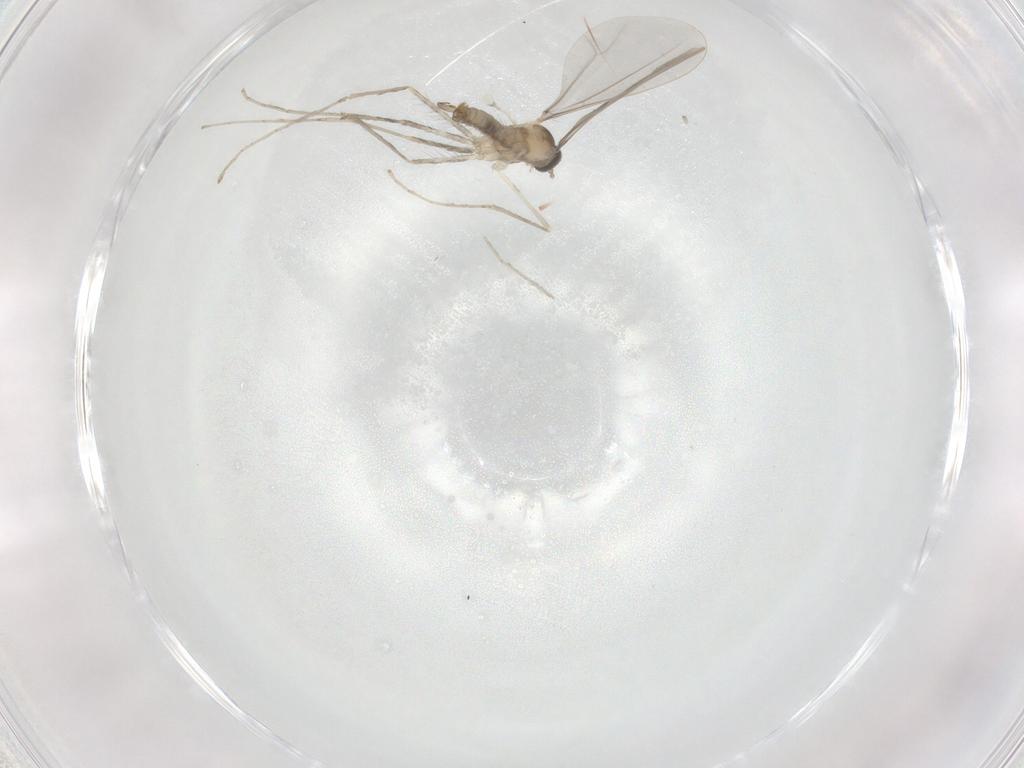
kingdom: Animalia
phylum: Arthropoda
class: Insecta
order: Diptera
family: Cecidomyiidae
